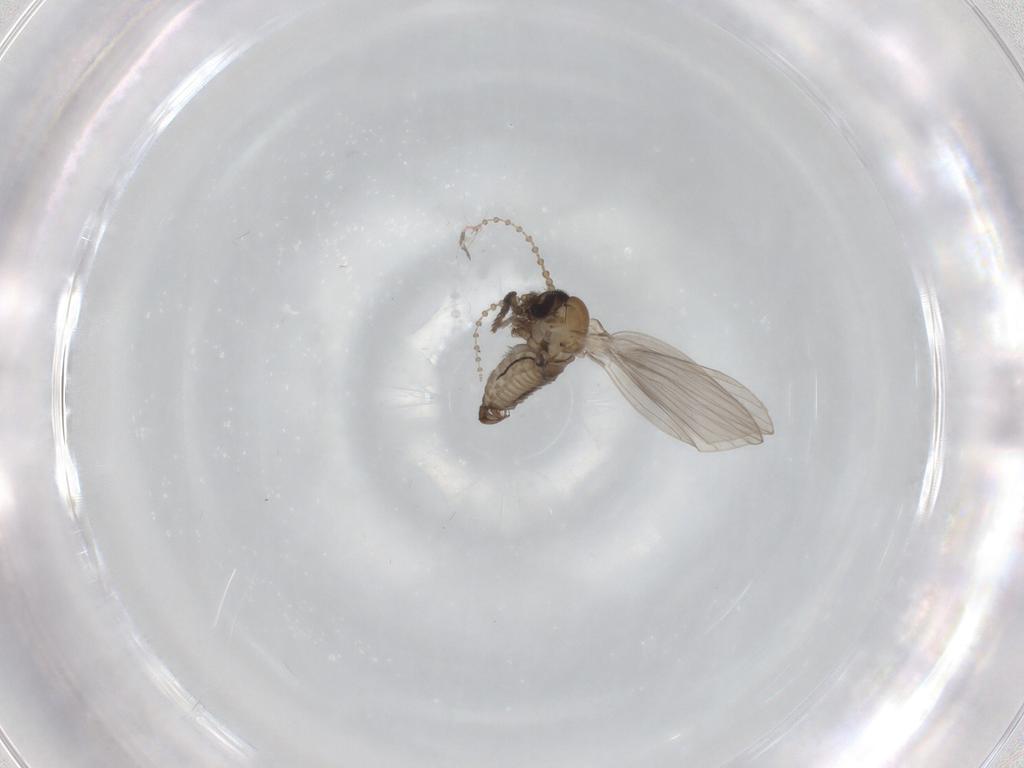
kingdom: Animalia
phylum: Arthropoda
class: Insecta
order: Diptera
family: Psychodidae
